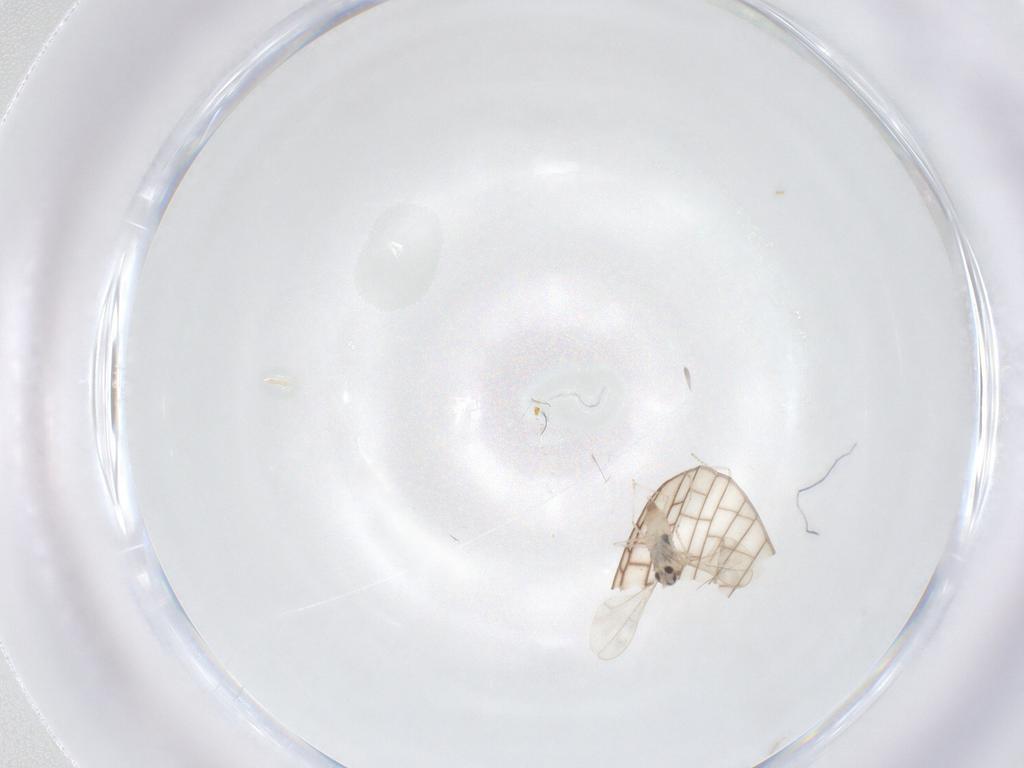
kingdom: Animalia
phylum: Arthropoda
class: Insecta
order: Diptera
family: Cecidomyiidae
